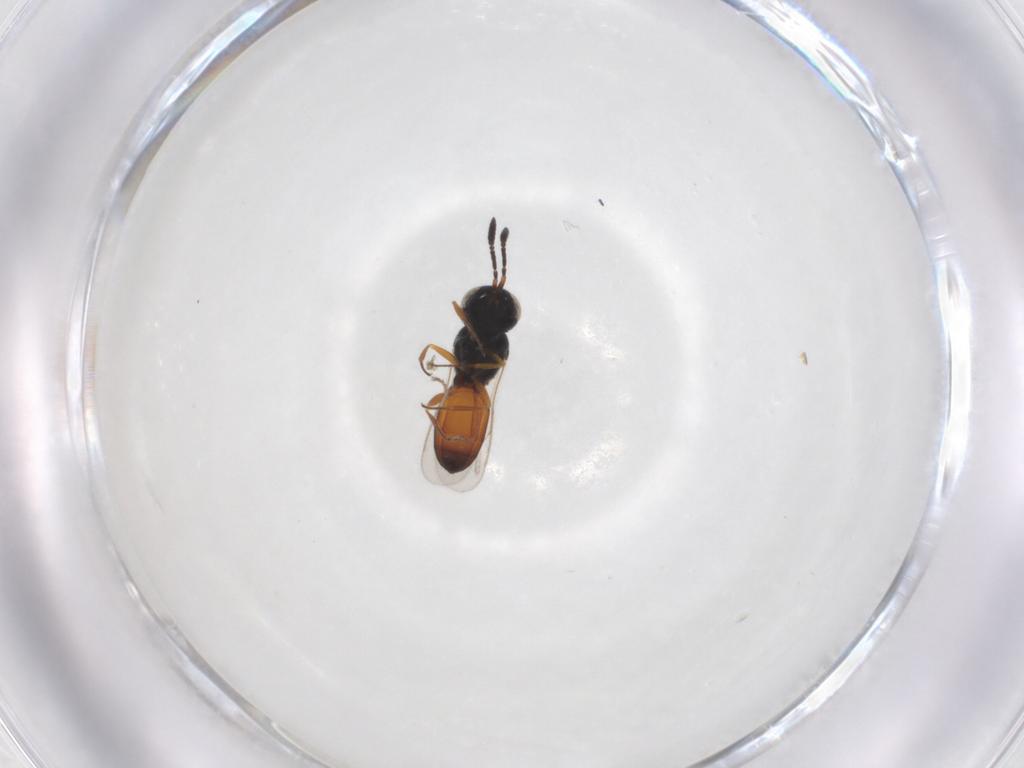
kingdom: Animalia
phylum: Arthropoda
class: Insecta
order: Hymenoptera
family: Scelionidae
